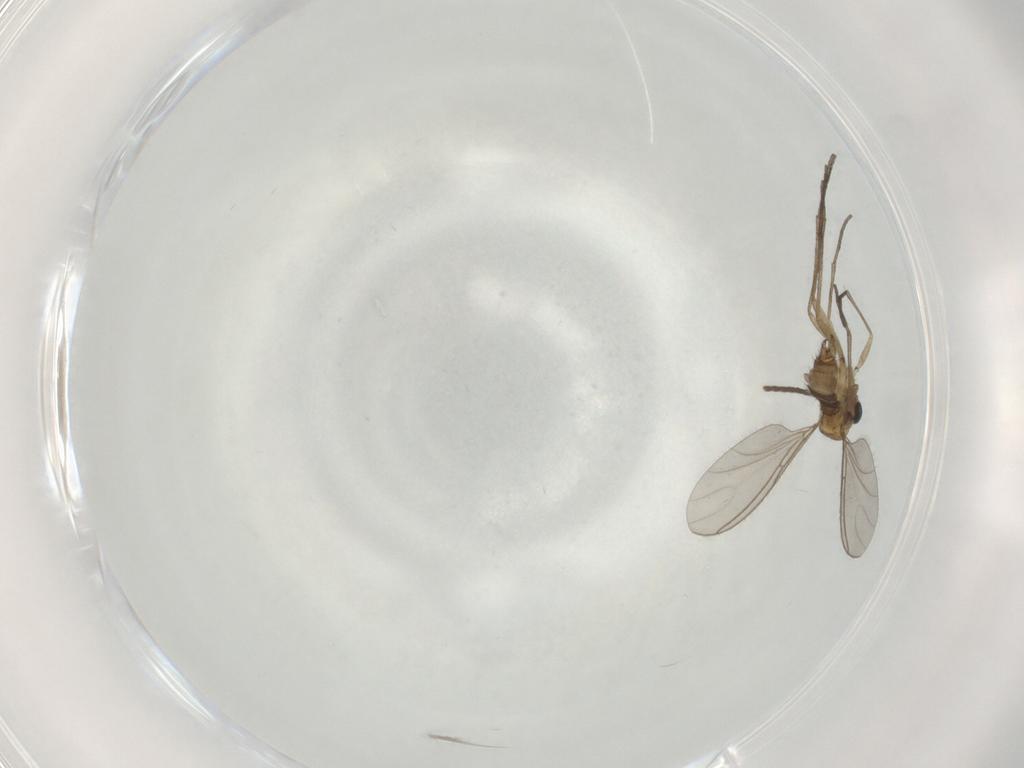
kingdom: Animalia
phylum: Arthropoda
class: Insecta
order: Diptera
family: Sciaridae
